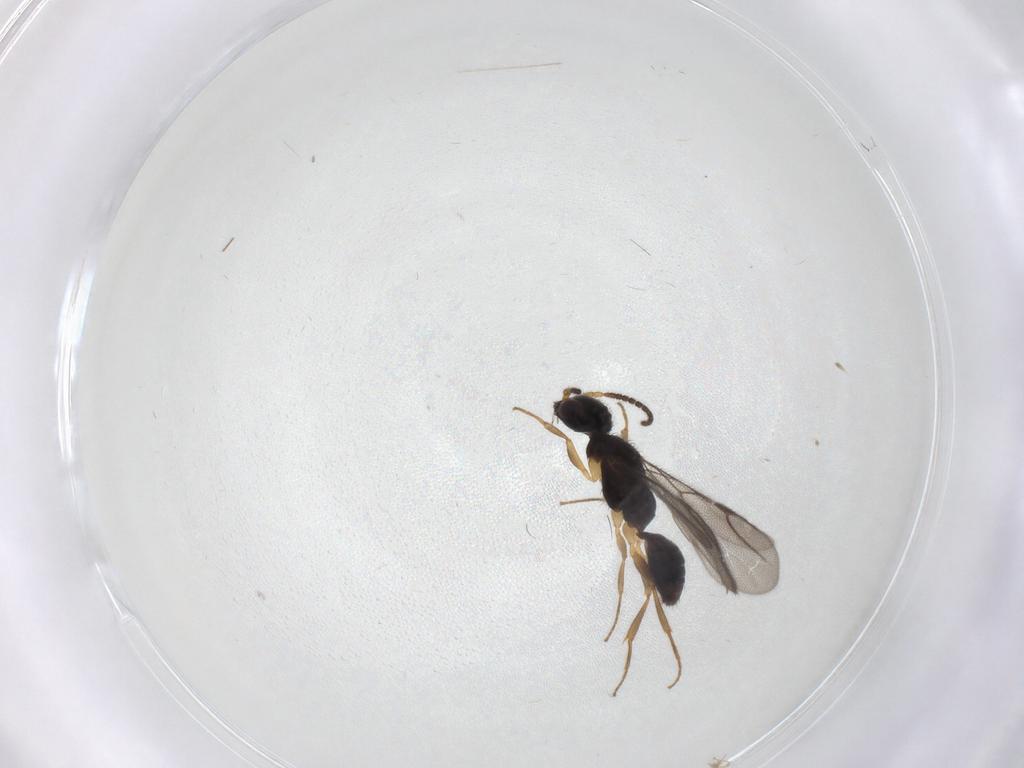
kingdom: Animalia
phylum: Arthropoda
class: Insecta
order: Hymenoptera
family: Bethylidae
